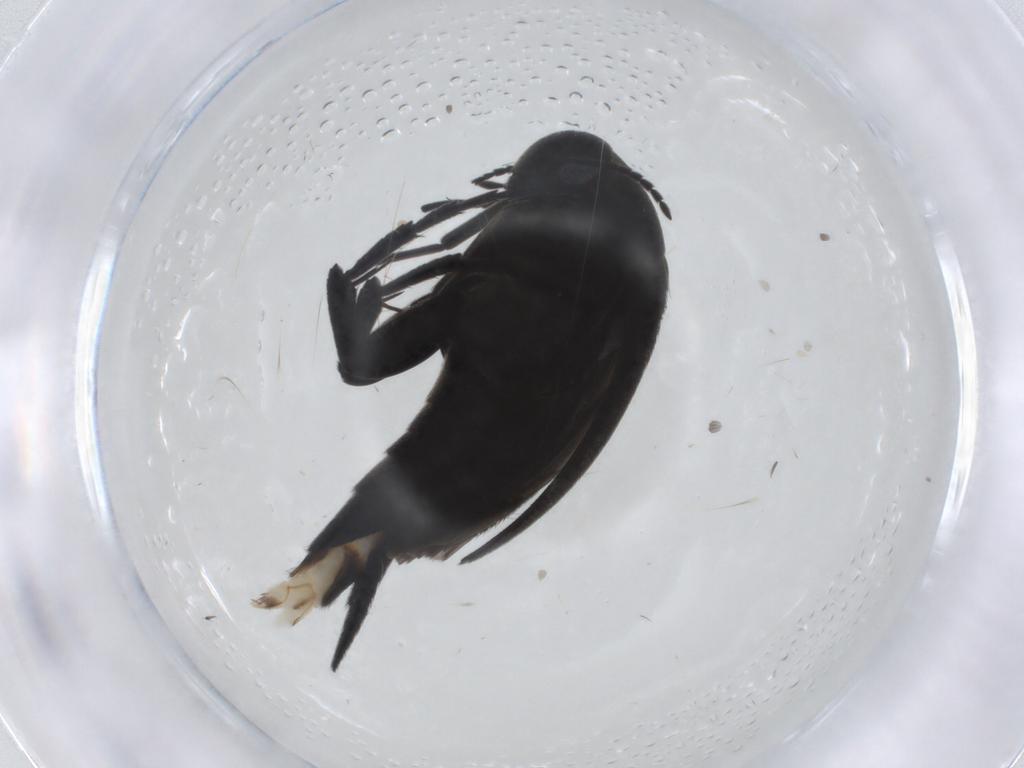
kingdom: Animalia
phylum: Arthropoda
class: Insecta
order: Coleoptera
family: Mordellidae
